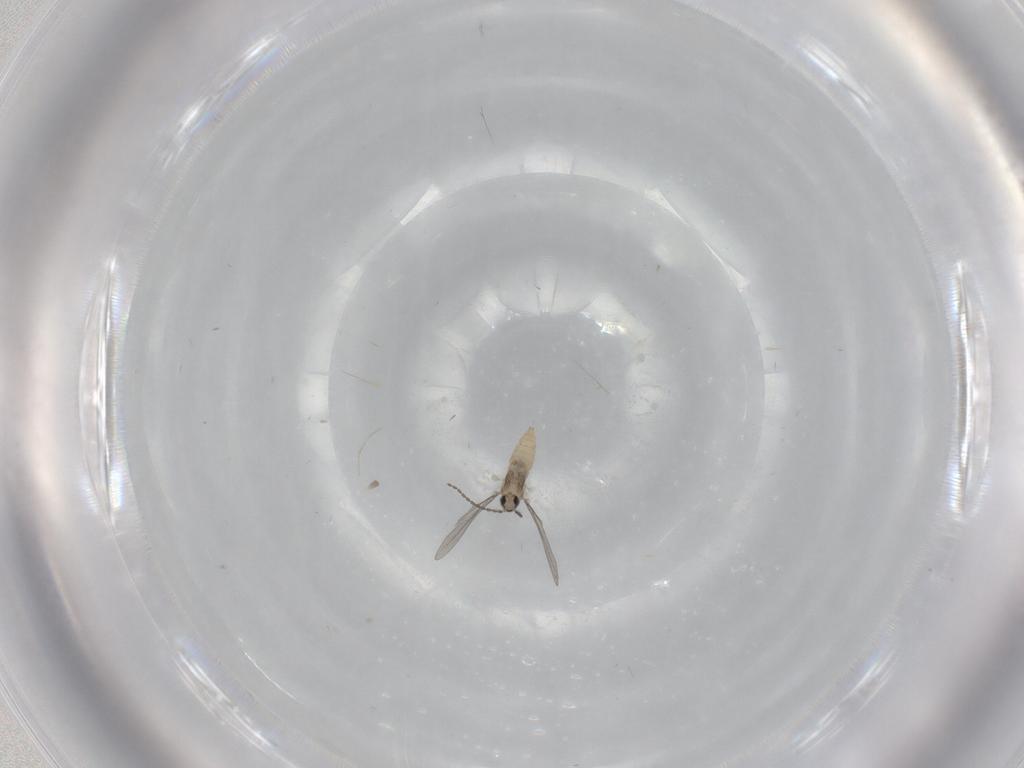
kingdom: Animalia
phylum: Arthropoda
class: Insecta
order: Diptera
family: Cecidomyiidae
